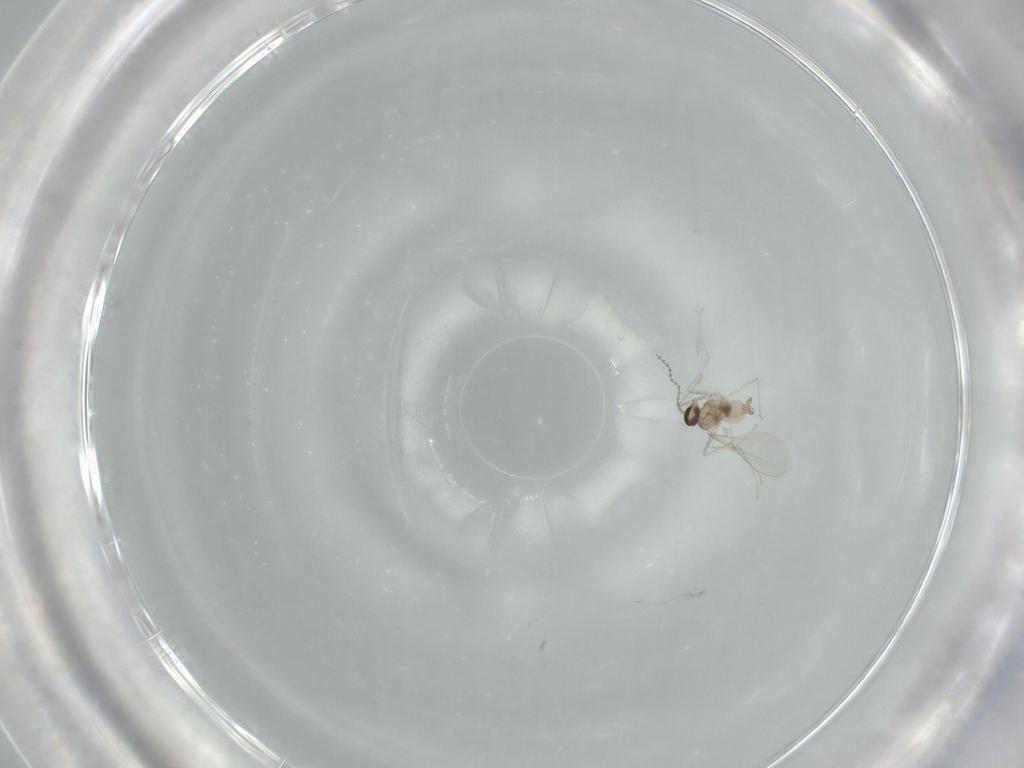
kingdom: Animalia
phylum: Arthropoda
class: Insecta
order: Diptera
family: Cecidomyiidae
